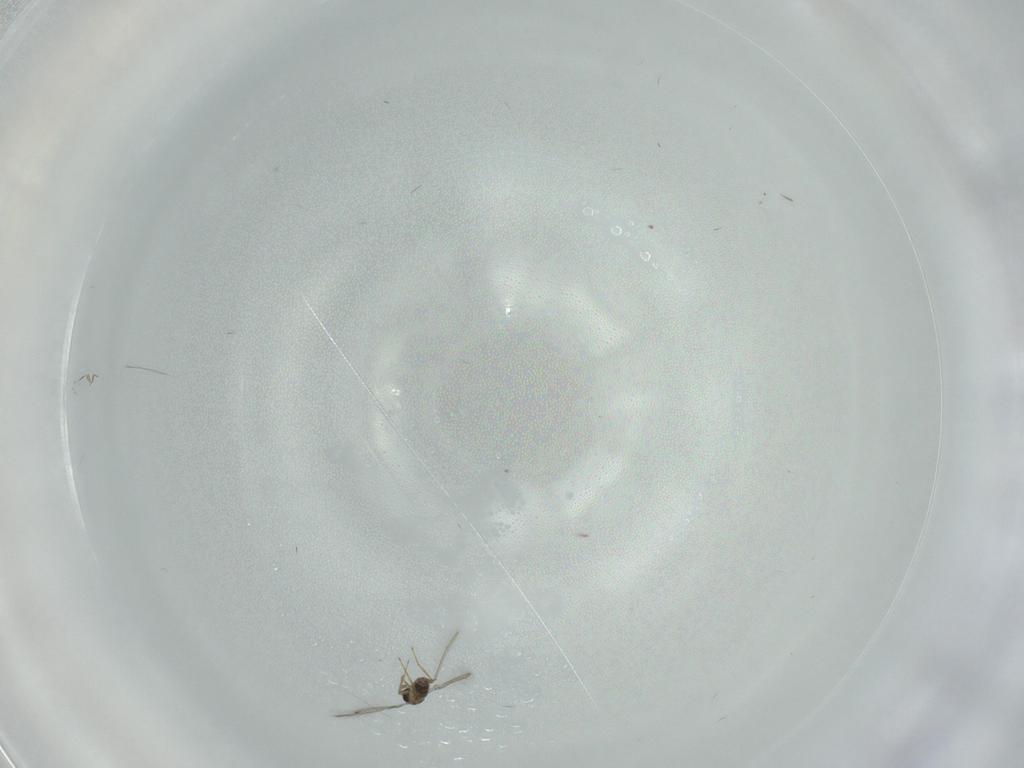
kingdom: Animalia
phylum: Arthropoda
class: Insecta
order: Hymenoptera
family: Mymaridae
